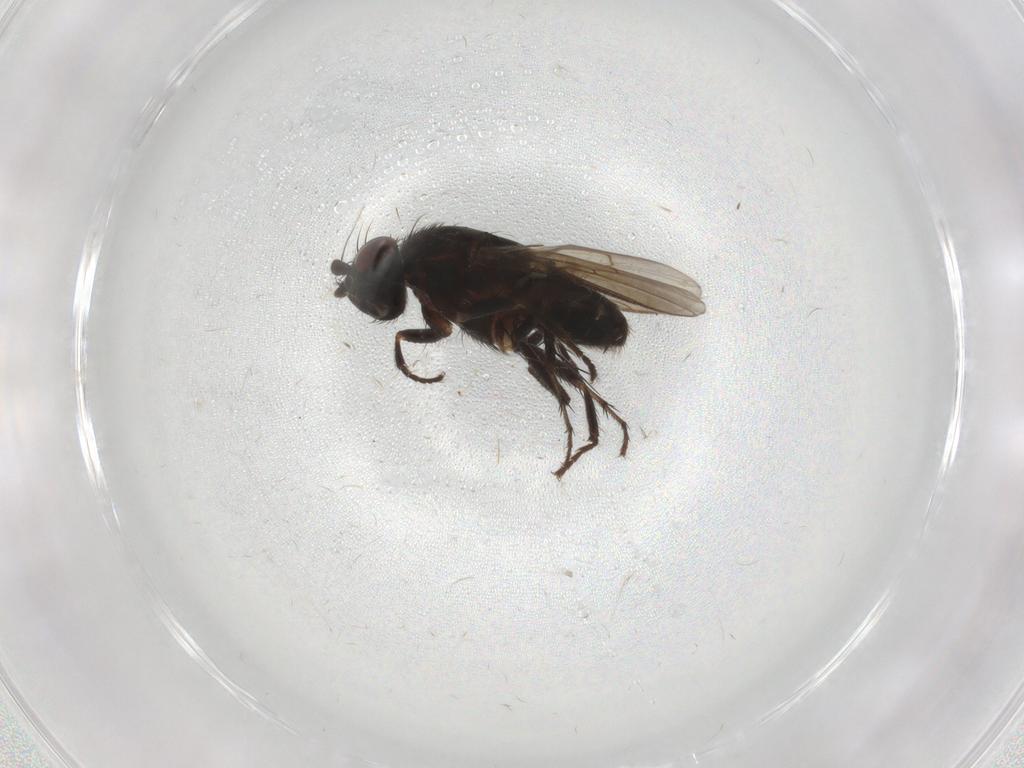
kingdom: Animalia
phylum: Arthropoda
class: Insecta
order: Diptera
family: Sphaeroceridae
